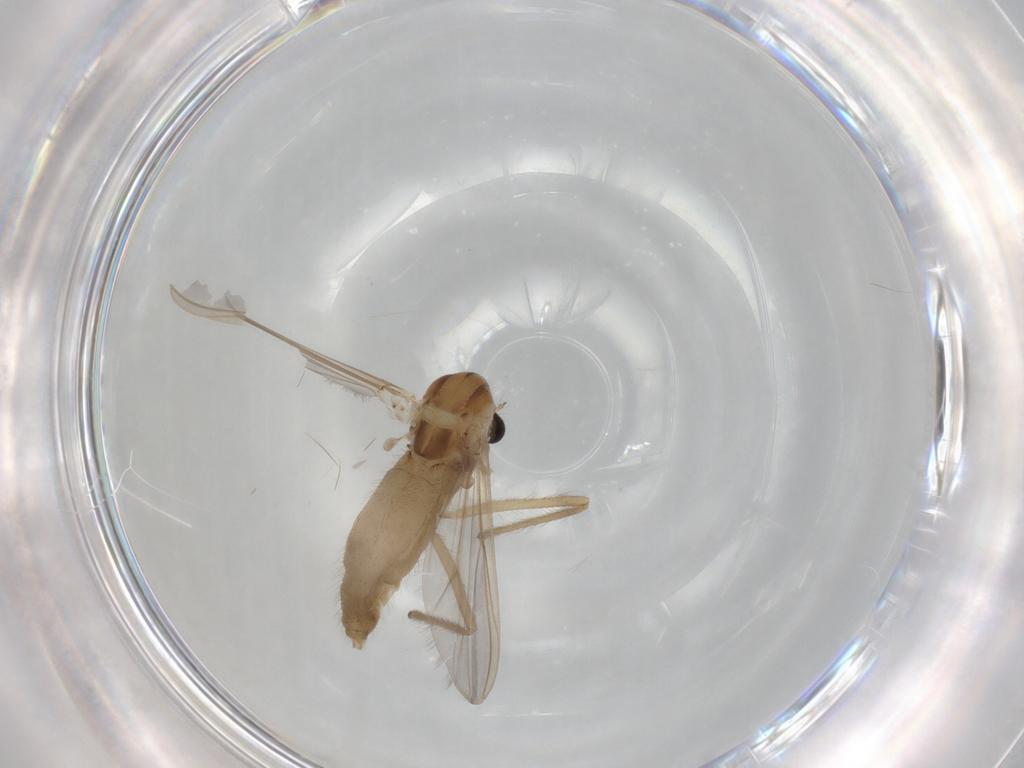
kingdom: Animalia
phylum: Arthropoda
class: Insecta
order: Diptera
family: Chironomidae
